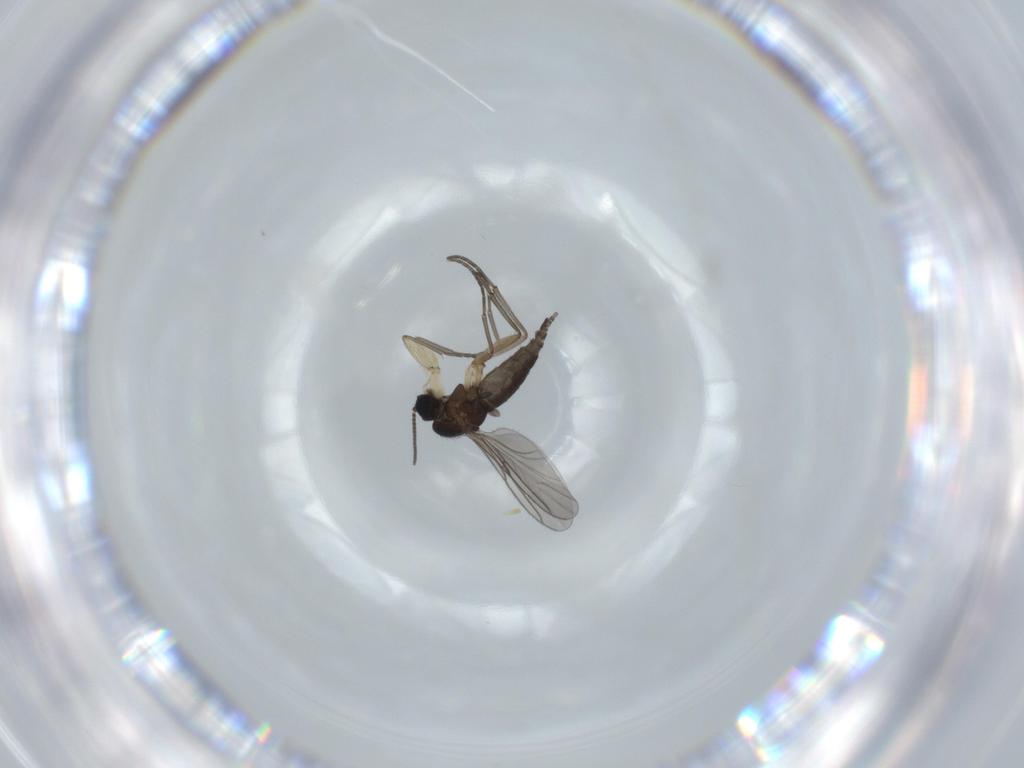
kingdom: Animalia
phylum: Arthropoda
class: Insecta
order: Diptera
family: Sciaridae
